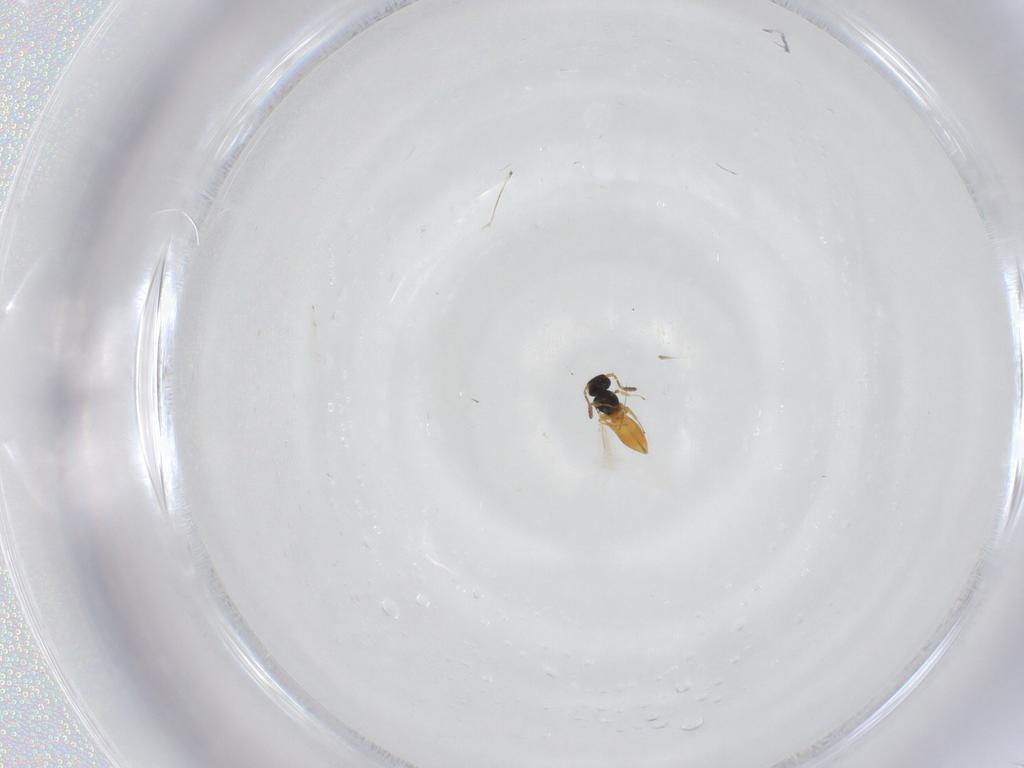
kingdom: Animalia
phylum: Arthropoda
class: Insecta
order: Hymenoptera
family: Scelionidae
